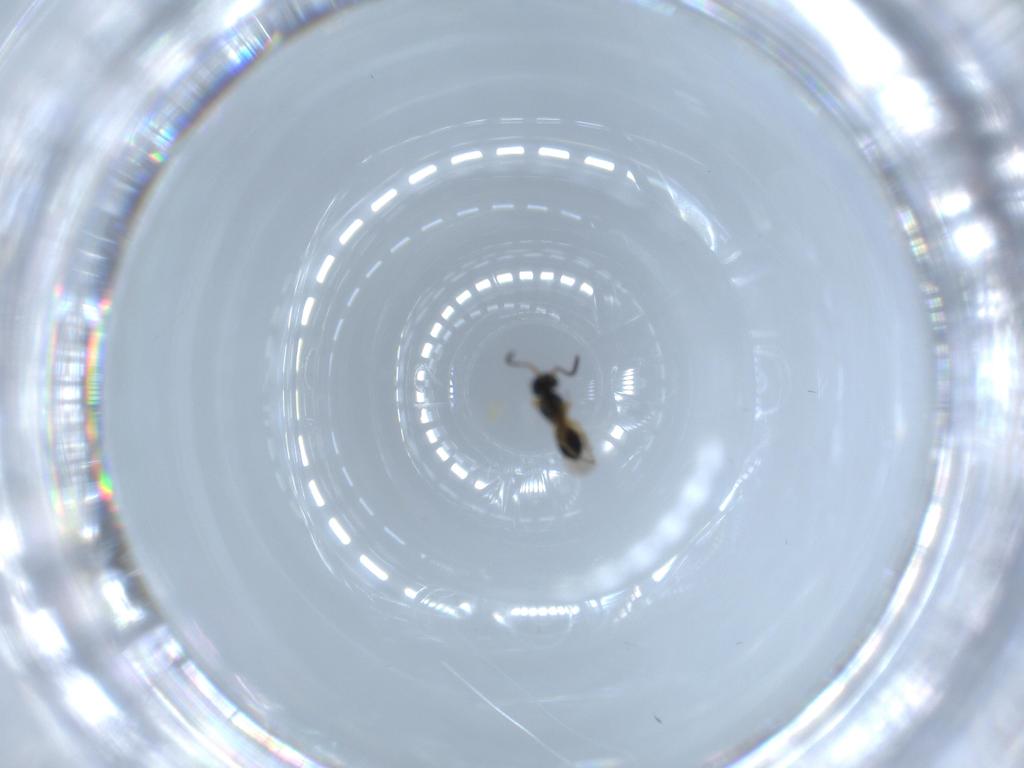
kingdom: Animalia
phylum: Arthropoda
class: Insecta
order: Hymenoptera
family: Scelionidae
